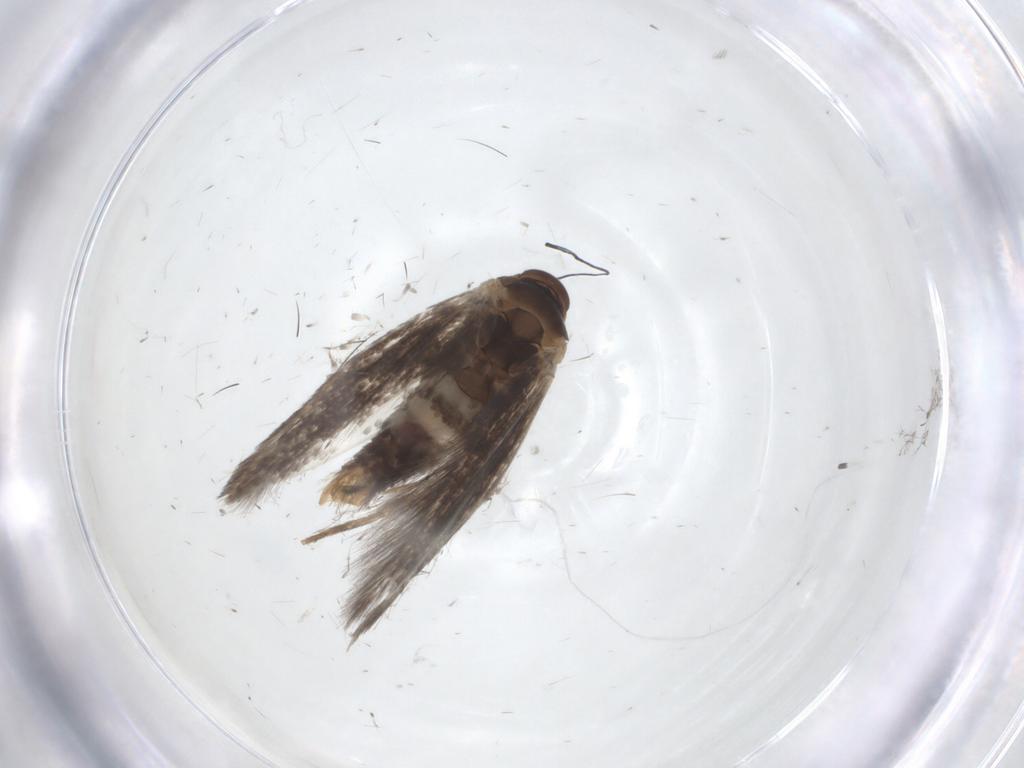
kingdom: Animalia
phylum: Arthropoda
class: Insecta
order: Lepidoptera
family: Elachistidae
